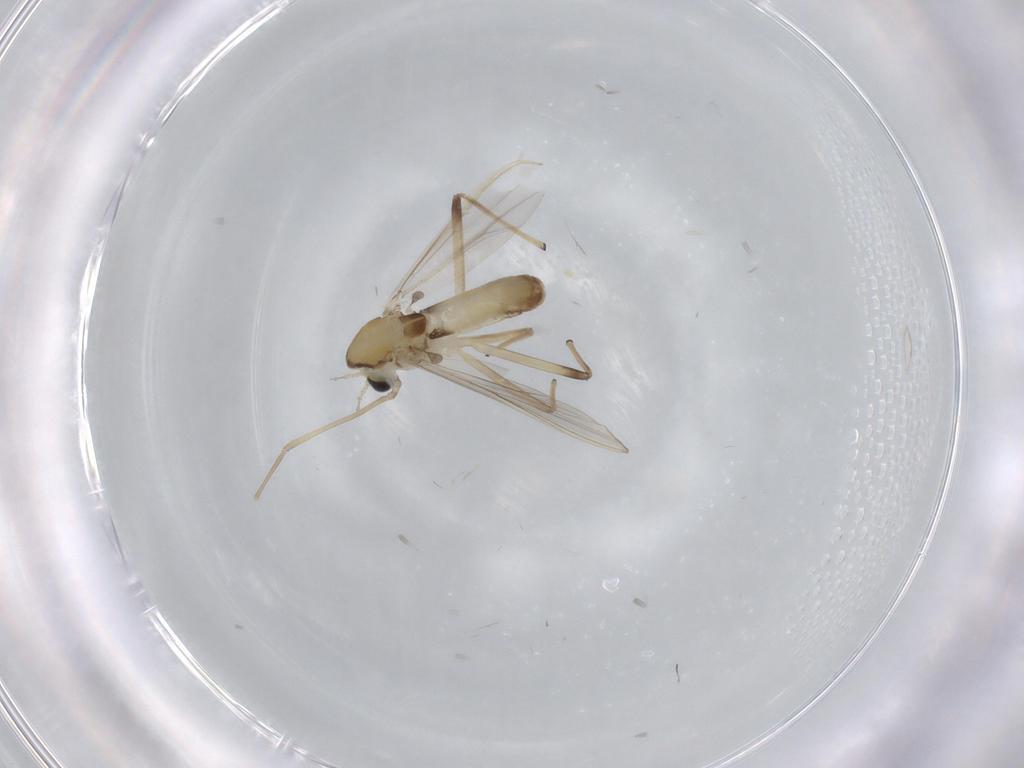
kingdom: Animalia
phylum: Arthropoda
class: Insecta
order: Diptera
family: Chironomidae
